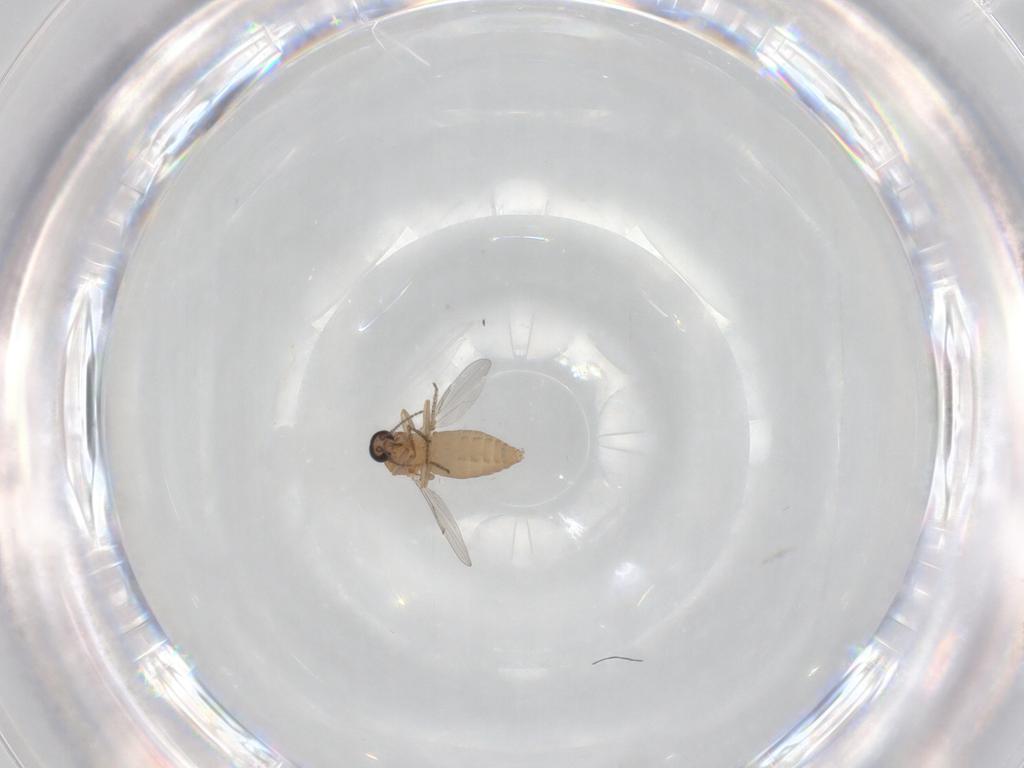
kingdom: Animalia
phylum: Arthropoda
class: Insecta
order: Diptera
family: Ceratopogonidae
